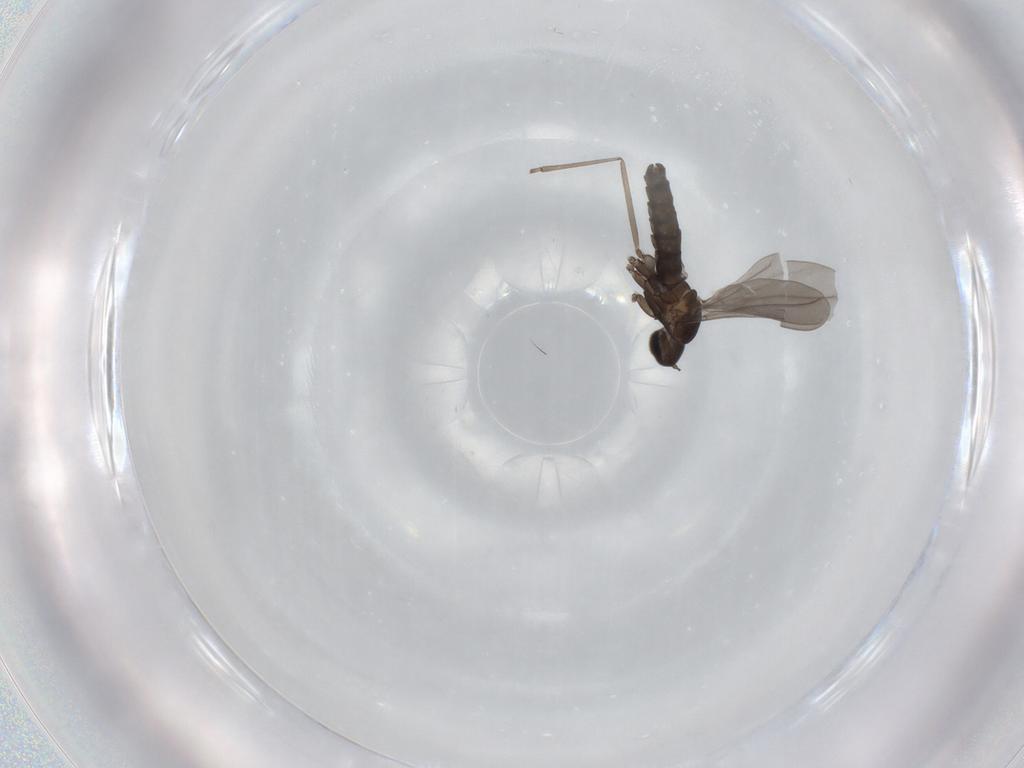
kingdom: Animalia
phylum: Arthropoda
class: Insecta
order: Diptera
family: Cecidomyiidae
